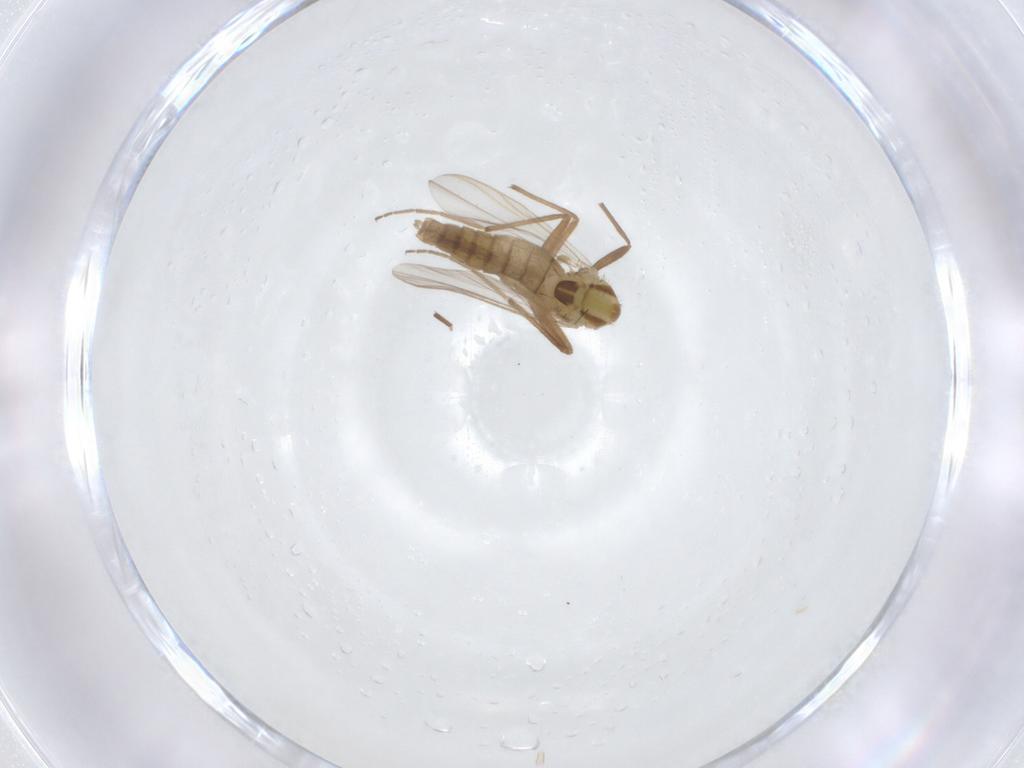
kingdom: Animalia
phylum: Arthropoda
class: Insecta
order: Diptera
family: Chironomidae
